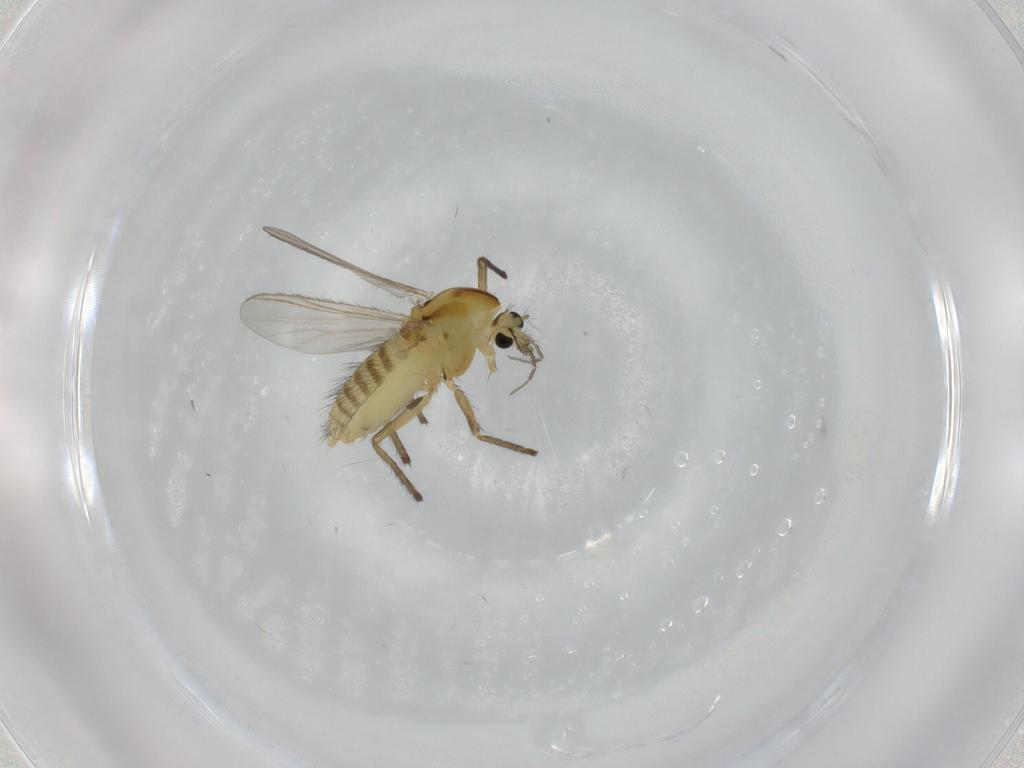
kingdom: Animalia
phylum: Arthropoda
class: Insecta
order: Diptera
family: Chironomidae
